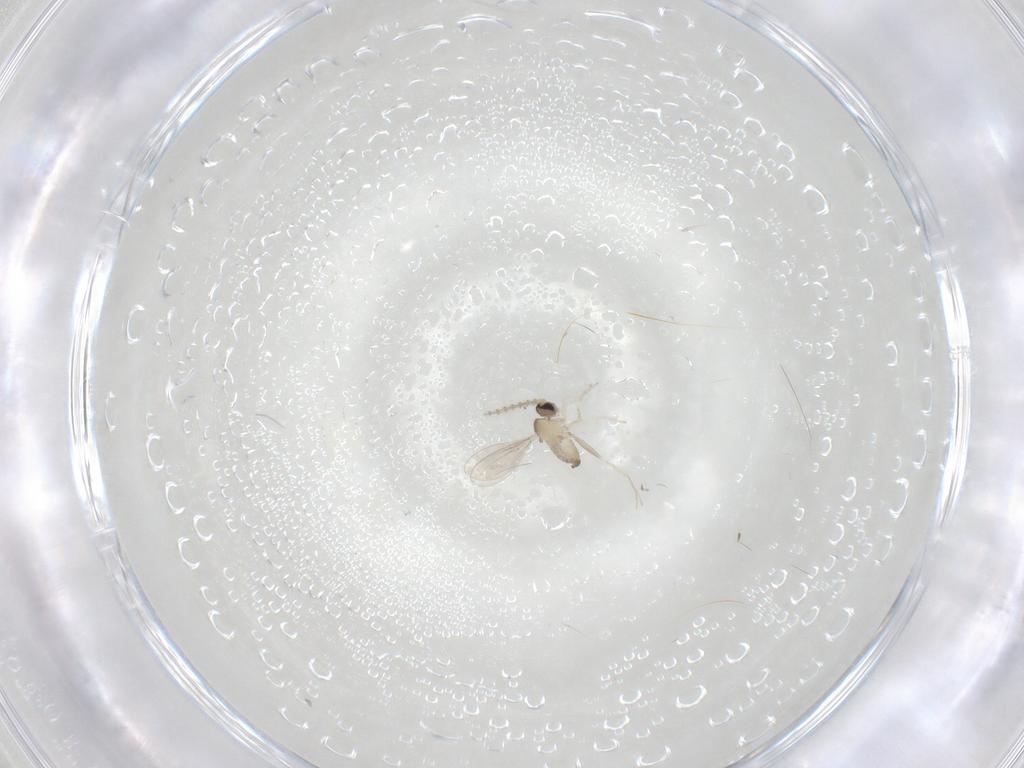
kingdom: Animalia
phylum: Arthropoda
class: Insecta
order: Diptera
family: Cecidomyiidae
